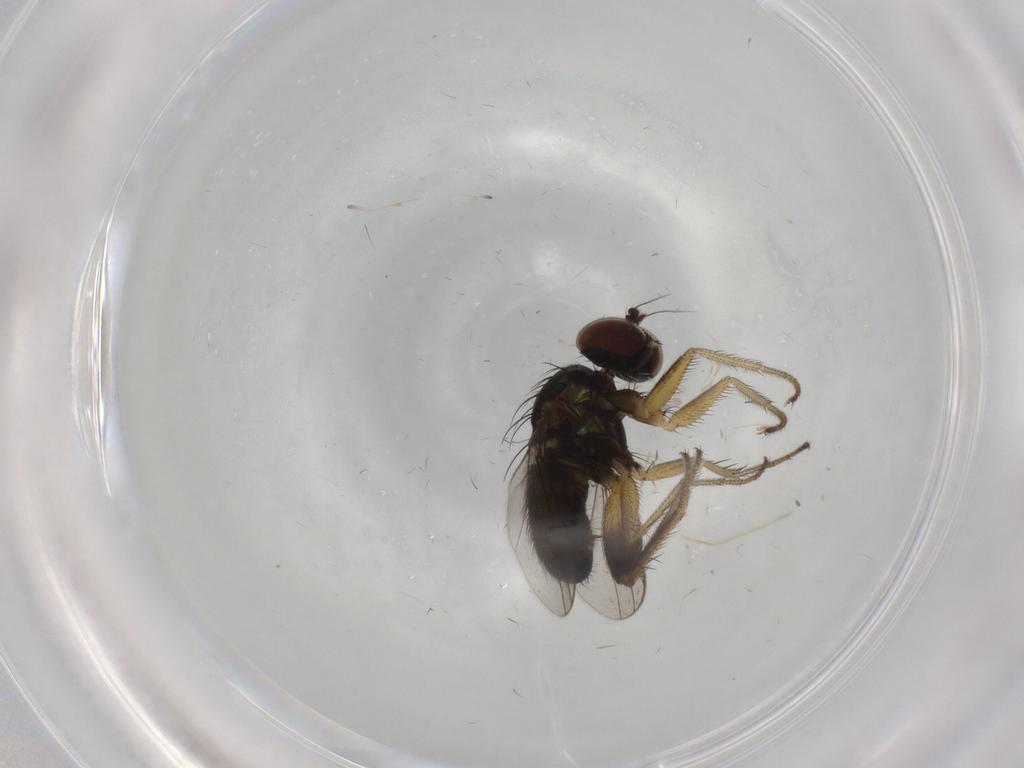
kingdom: Animalia
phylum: Arthropoda
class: Insecta
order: Diptera
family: Dolichopodidae
